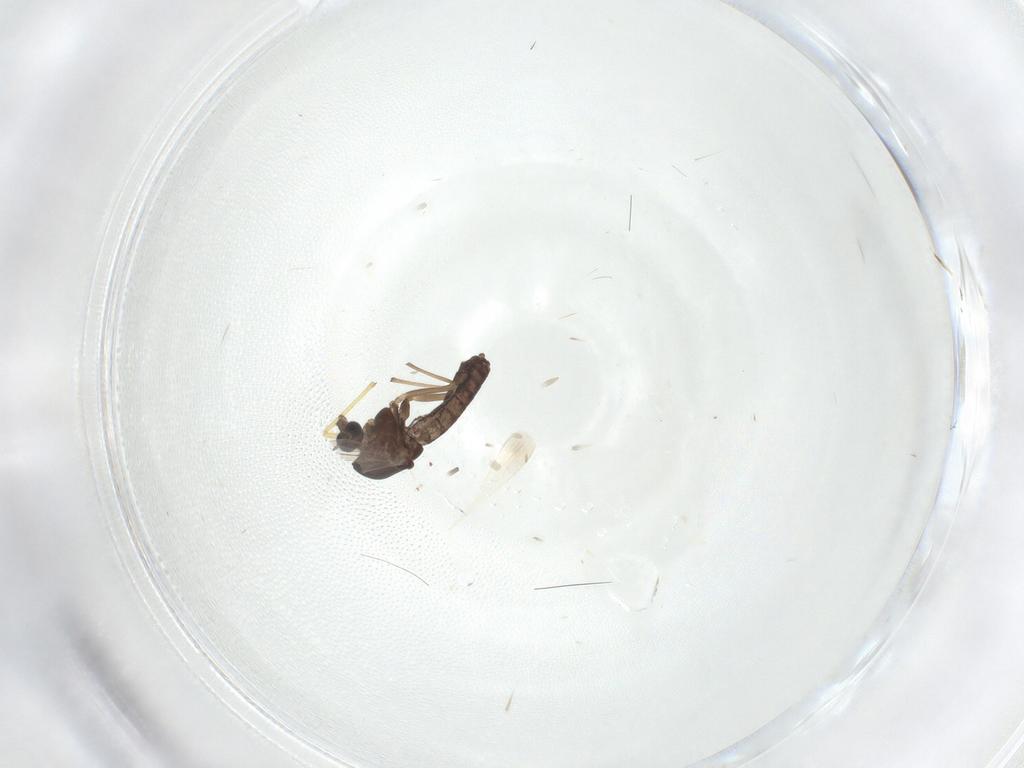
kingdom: Animalia
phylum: Arthropoda
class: Insecta
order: Diptera
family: Chironomidae
